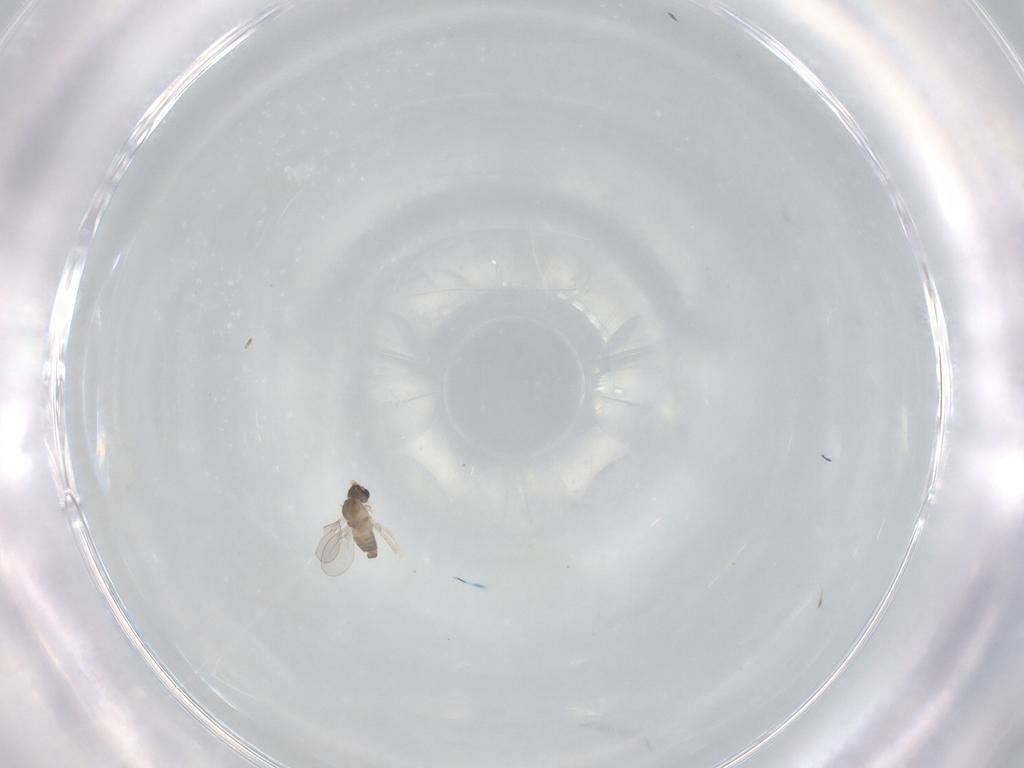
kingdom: Animalia
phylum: Arthropoda
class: Insecta
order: Diptera
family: Cecidomyiidae
